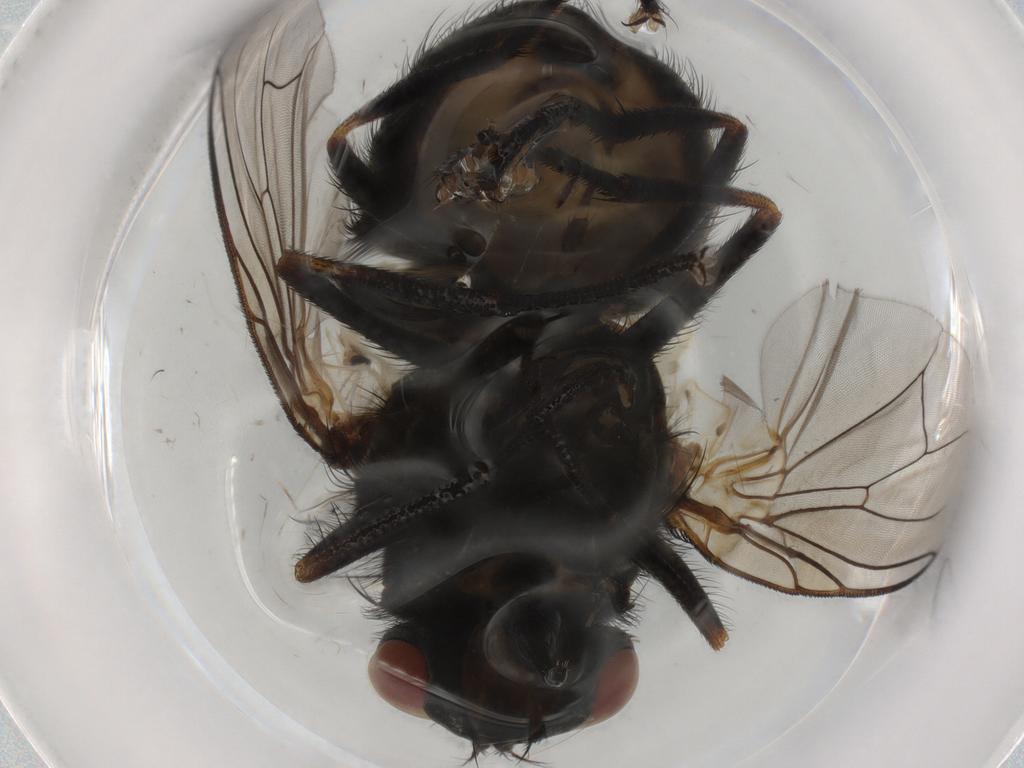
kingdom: Animalia
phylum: Arthropoda
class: Insecta
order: Diptera
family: Muscidae
